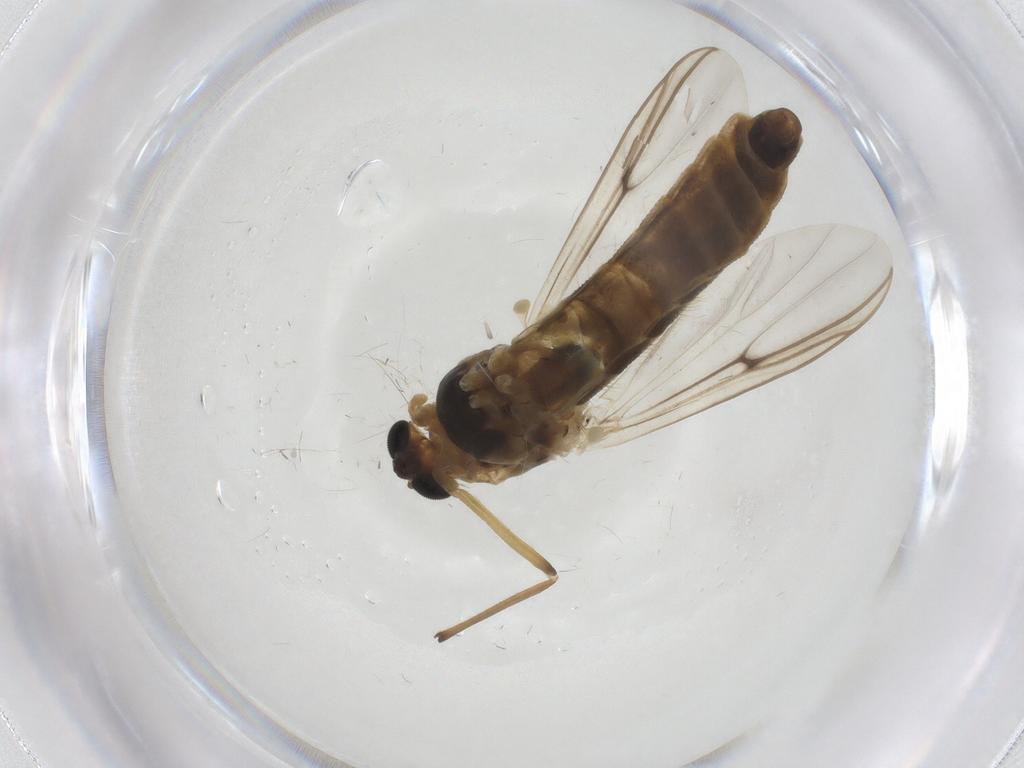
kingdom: Animalia
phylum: Arthropoda
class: Insecta
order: Diptera
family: Chironomidae
